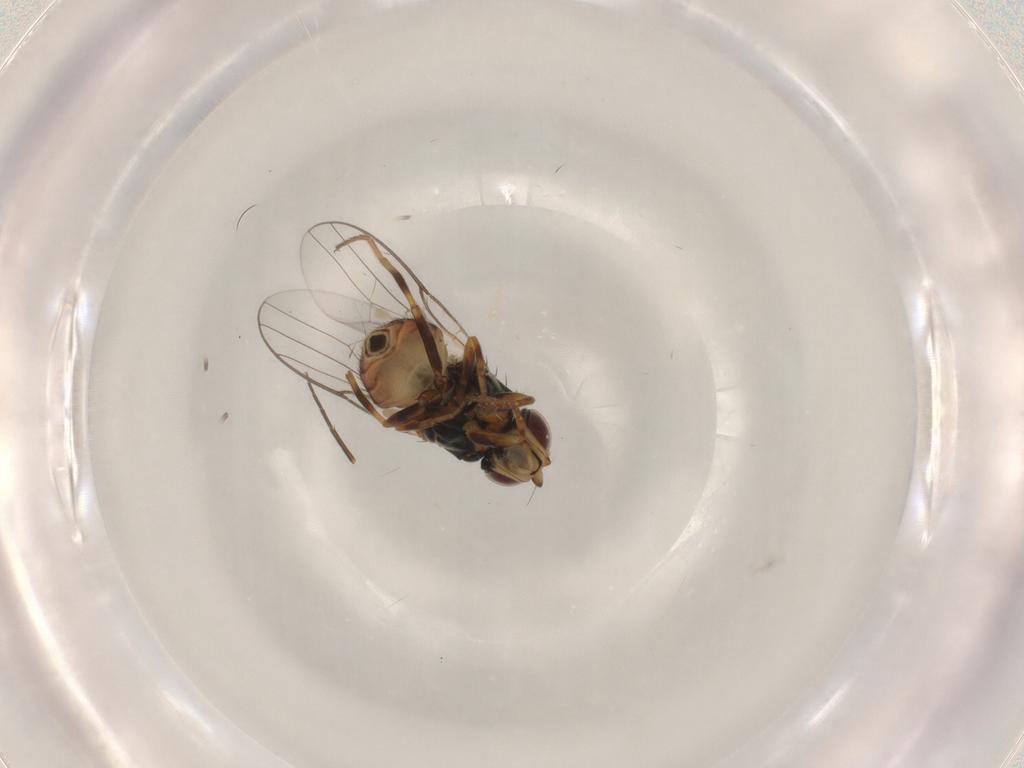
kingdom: Animalia
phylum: Arthropoda
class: Insecta
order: Diptera
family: Chloropidae
